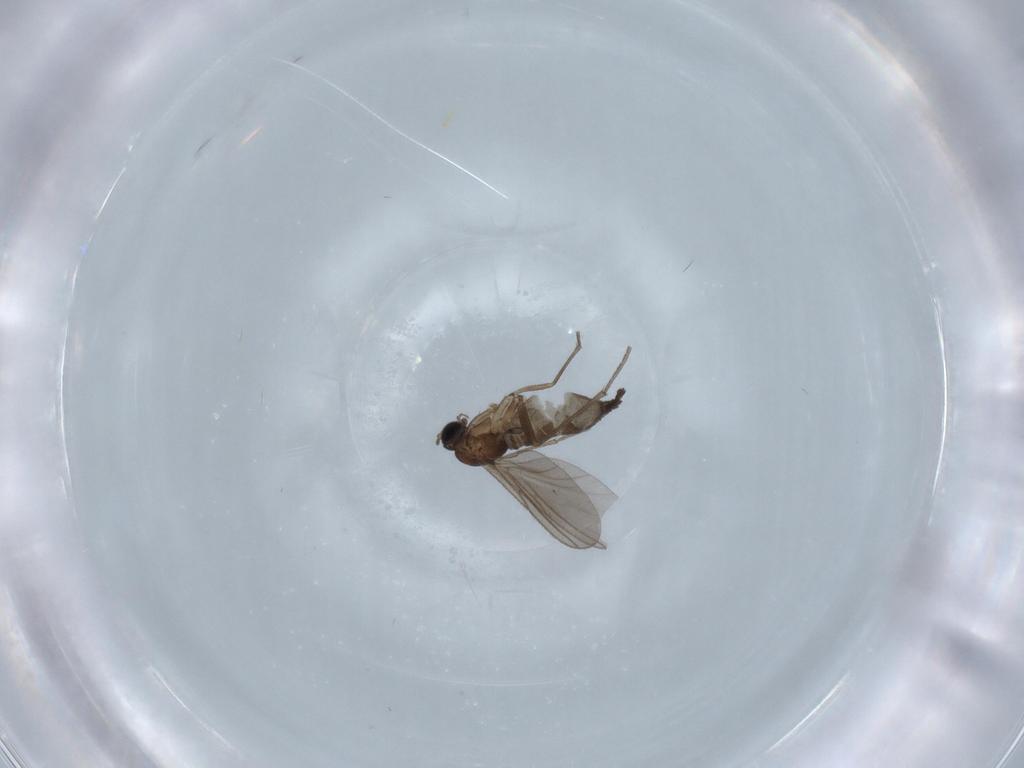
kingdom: Animalia
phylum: Arthropoda
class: Insecta
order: Diptera
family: Sciaridae
